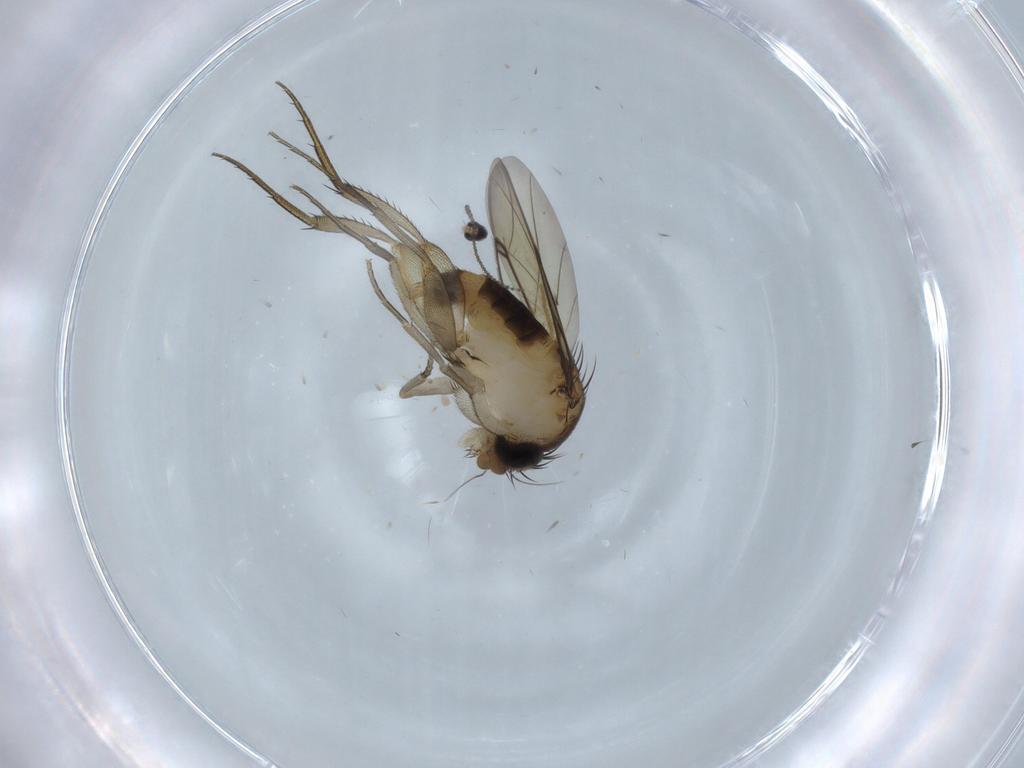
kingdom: Animalia
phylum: Arthropoda
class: Insecta
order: Diptera
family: Cecidomyiidae
